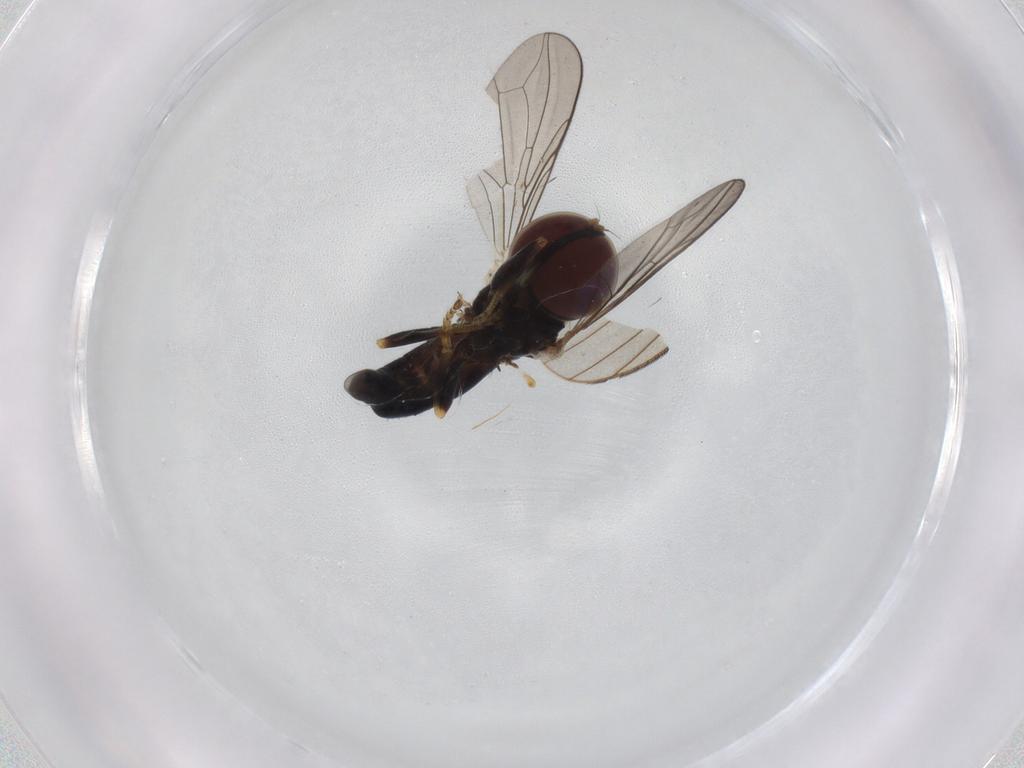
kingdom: Animalia
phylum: Arthropoda
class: Insecta
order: Diptera
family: Pipunculidae
